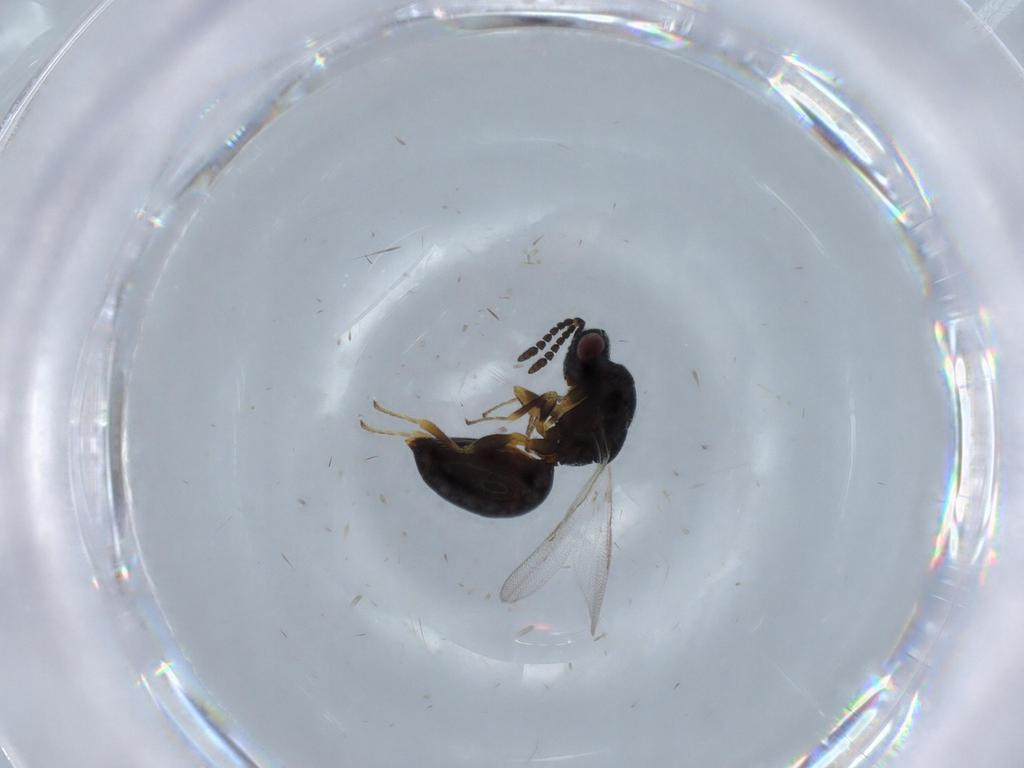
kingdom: Animalia
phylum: Arthropoda
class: Insecta
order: Hymenoptera
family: Eurytomidae
